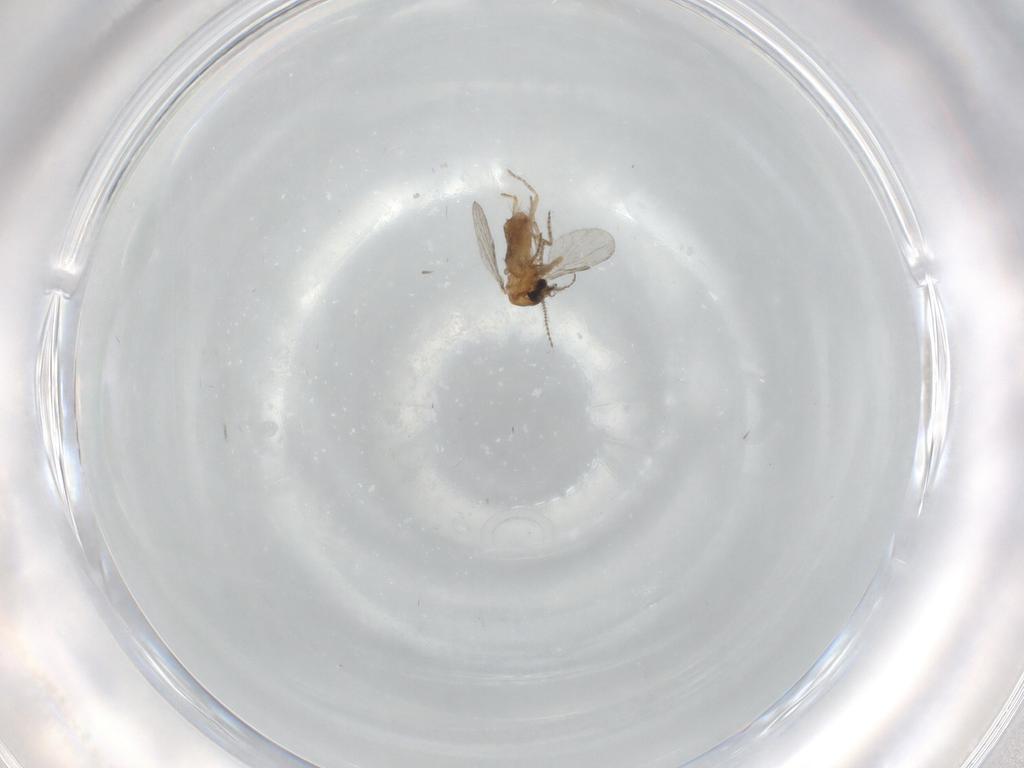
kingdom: Animalia
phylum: Arthropoda
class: Insecta
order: Diptera
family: Ceratopogonidae
